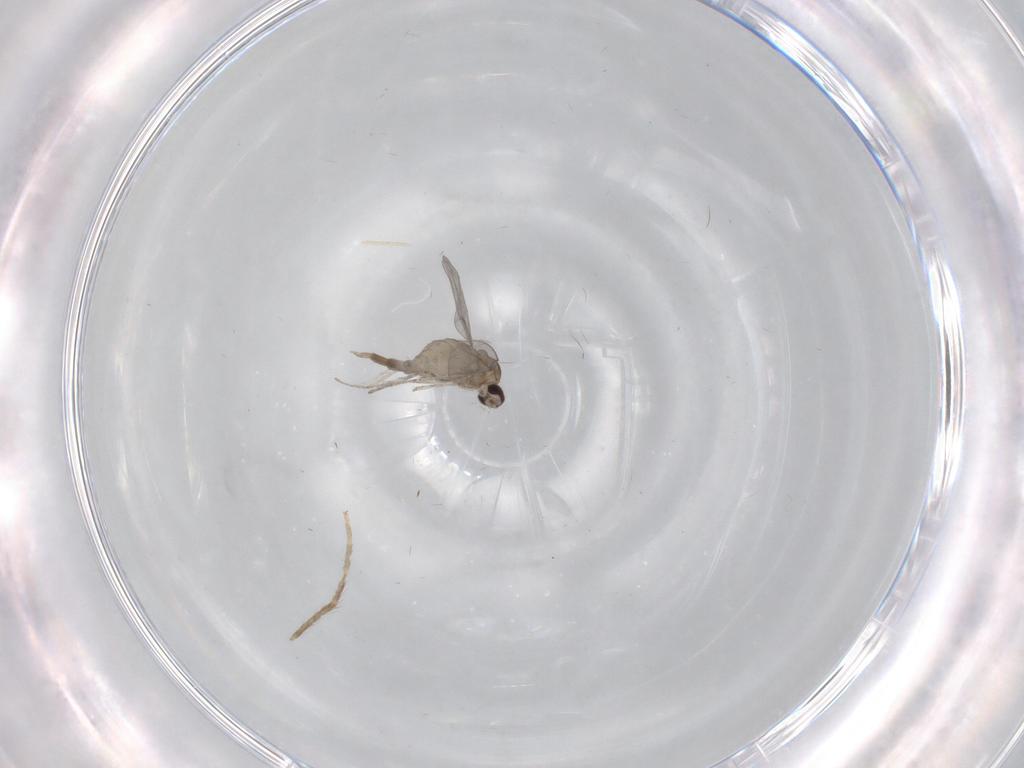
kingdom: Animalia
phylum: Arthropoda
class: Insecta
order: Diptera
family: Chironomidae
